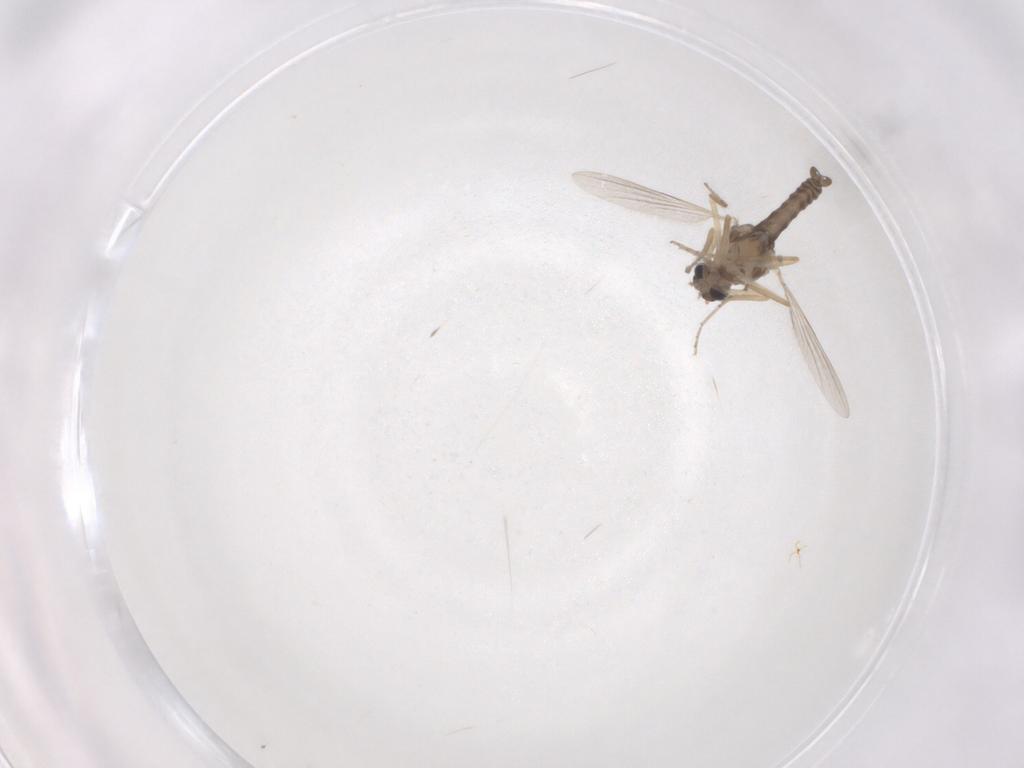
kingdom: Animalia
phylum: Arthropoda
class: Insecta
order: Diptera
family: Ceratopogonidae
